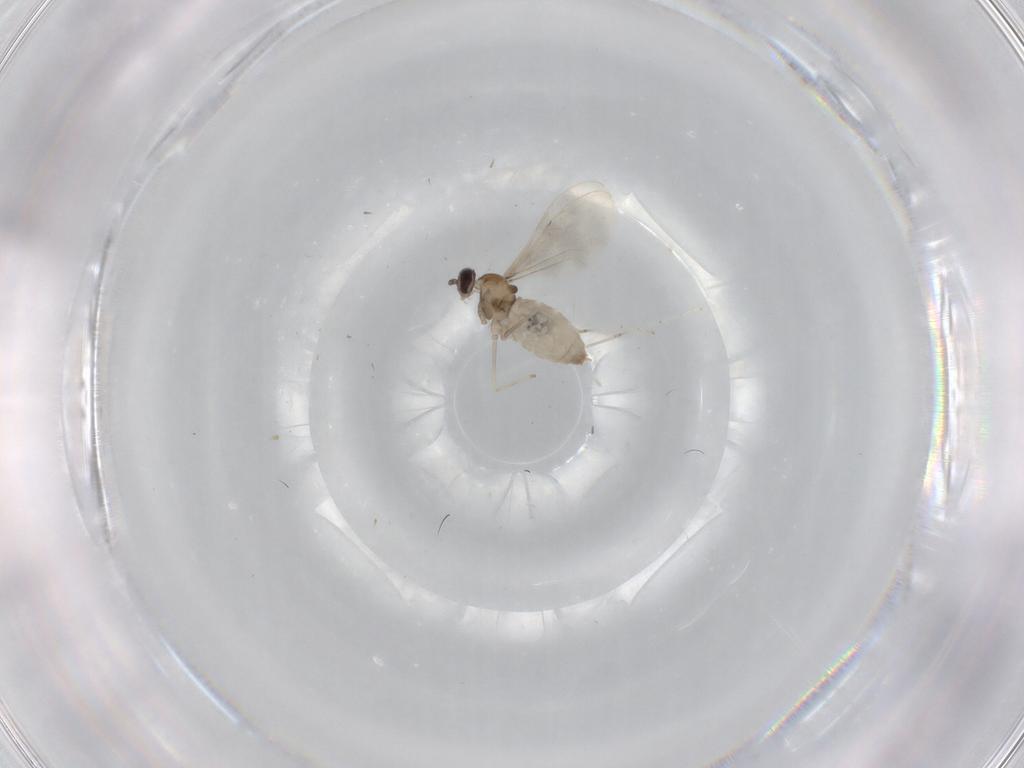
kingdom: Animalia
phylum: Arthropoda
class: Insecta
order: Diptera
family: Cecidomyiidae
